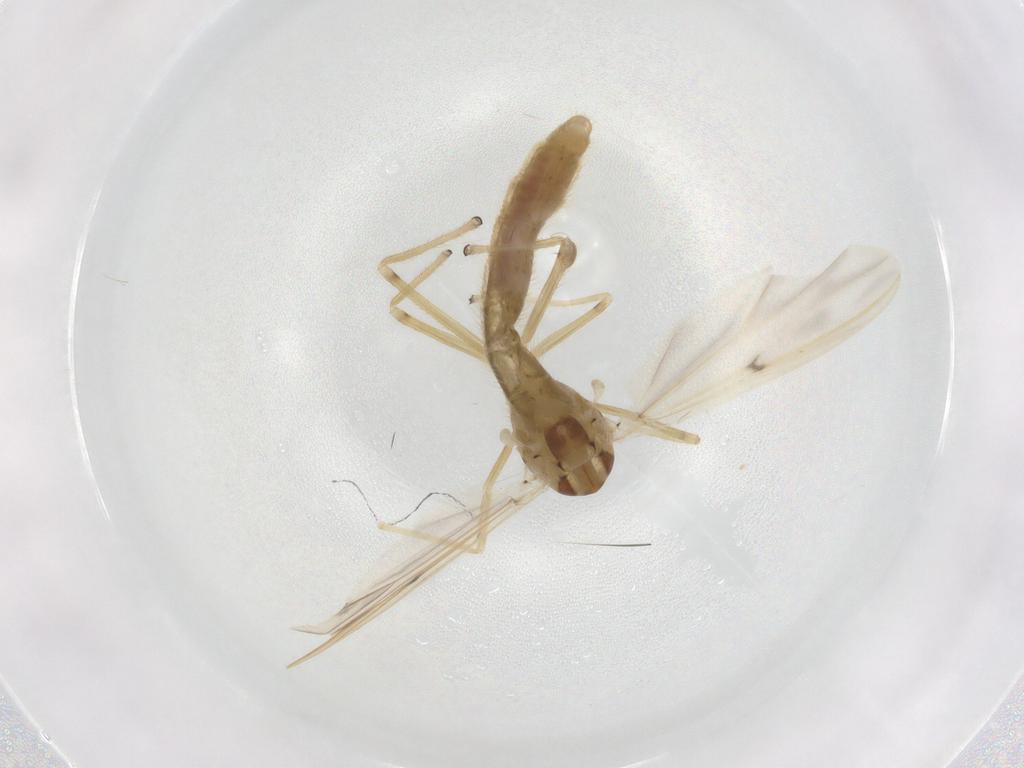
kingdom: Animalia
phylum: Arthropoda
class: Insecta
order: Diptera
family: Chironomidae
